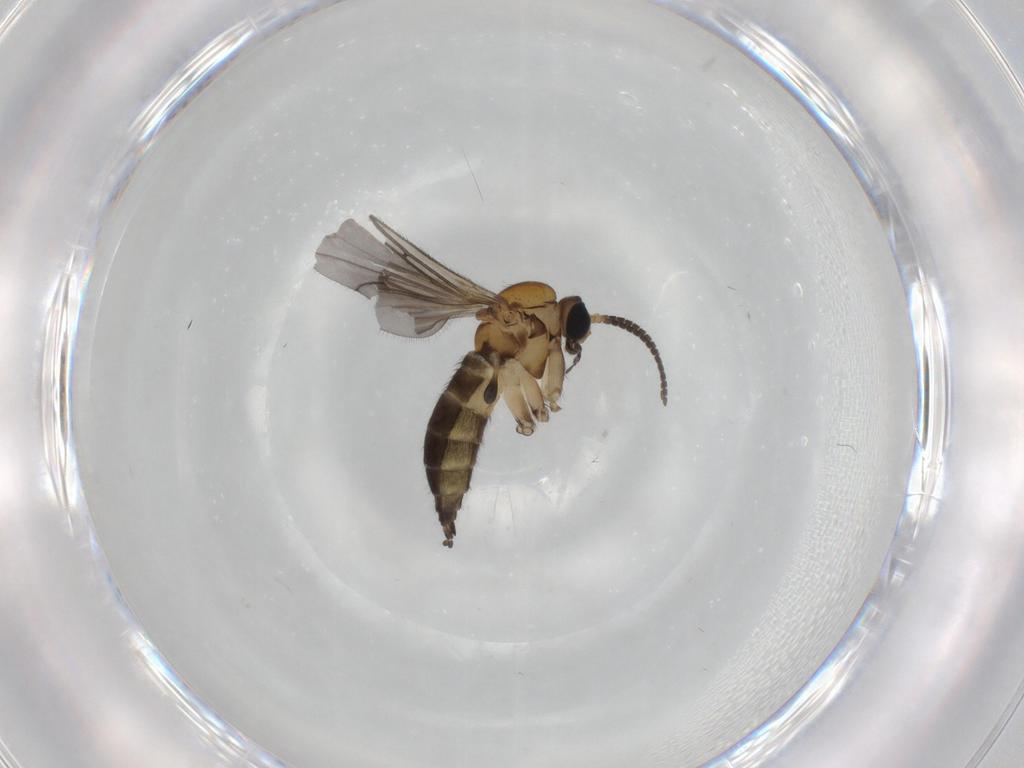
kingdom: Animalia
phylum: Arthropoda
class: Insecta
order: Diptera
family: Sciaridae
